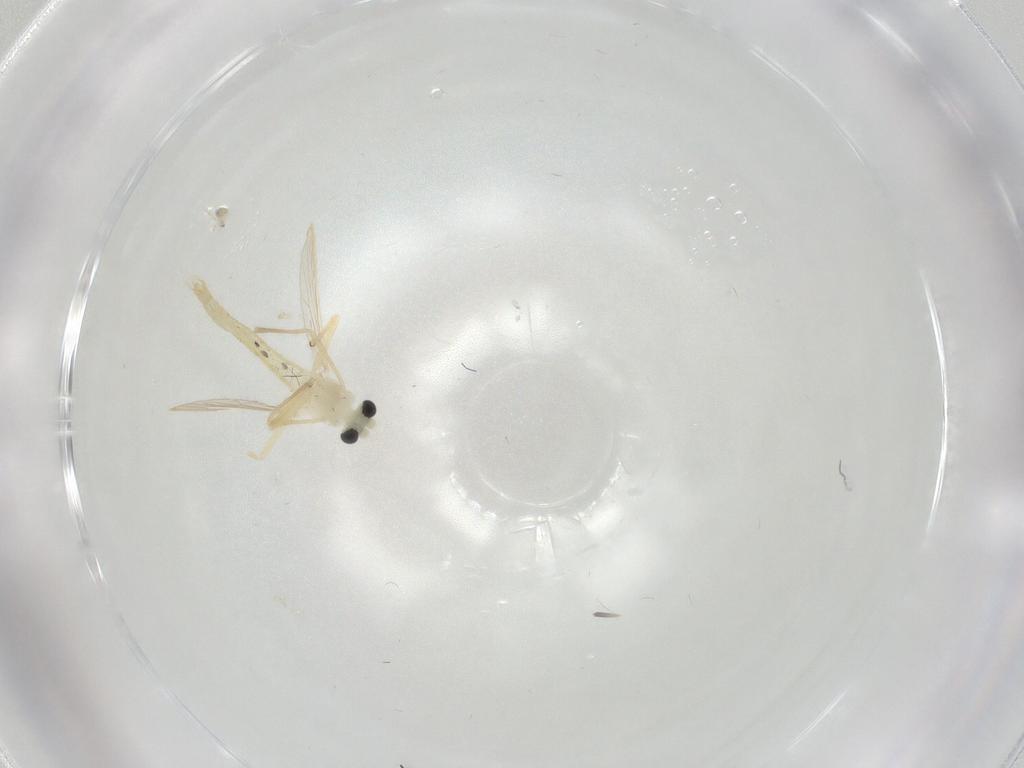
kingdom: Animalia
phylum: Arthropoda
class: Insecta
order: Diptera
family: Chironomidae
